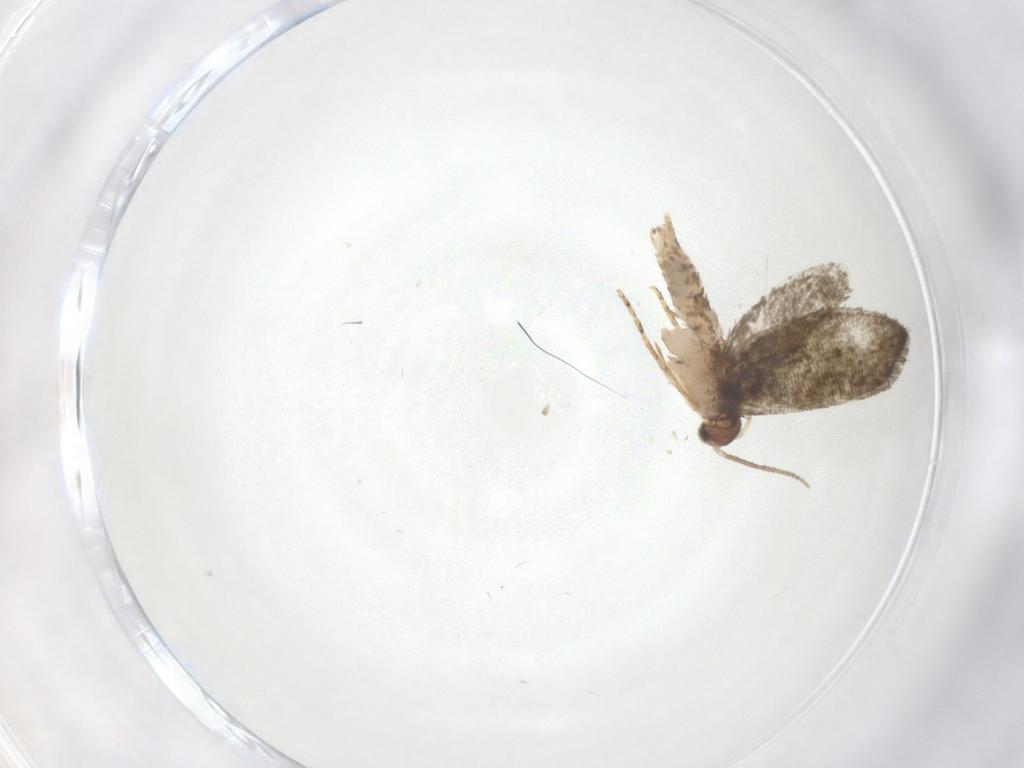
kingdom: Animalia
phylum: Arthropoda
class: Insecta
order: Lepidoptera
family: Tineidae
